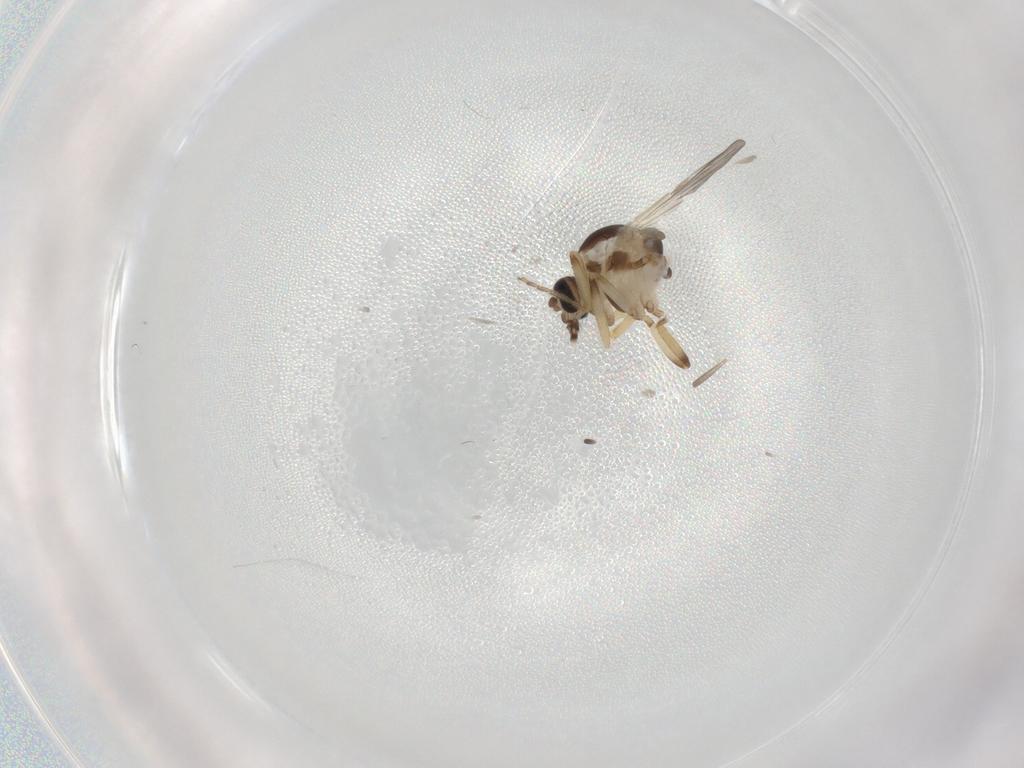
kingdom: Animalia
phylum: Arthropoda
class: Insecta
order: Diptera
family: Ceratopogonidae
